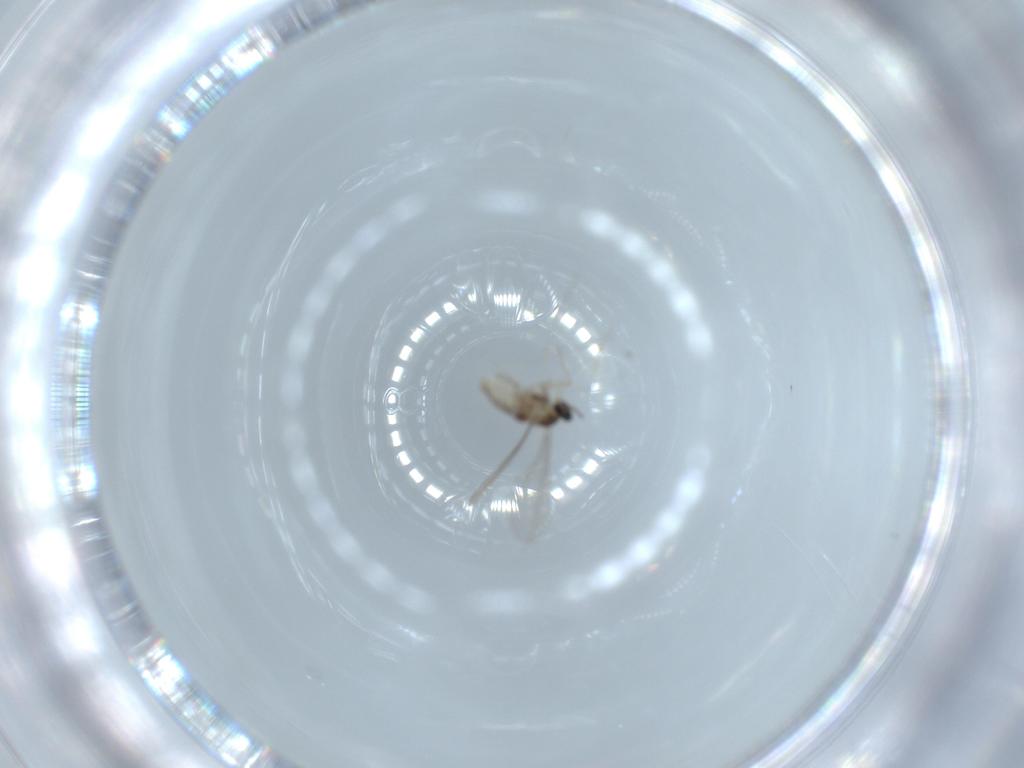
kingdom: Animalia
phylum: Arthropoda
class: Insecta
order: Diptera
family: Cecidomyiidae
